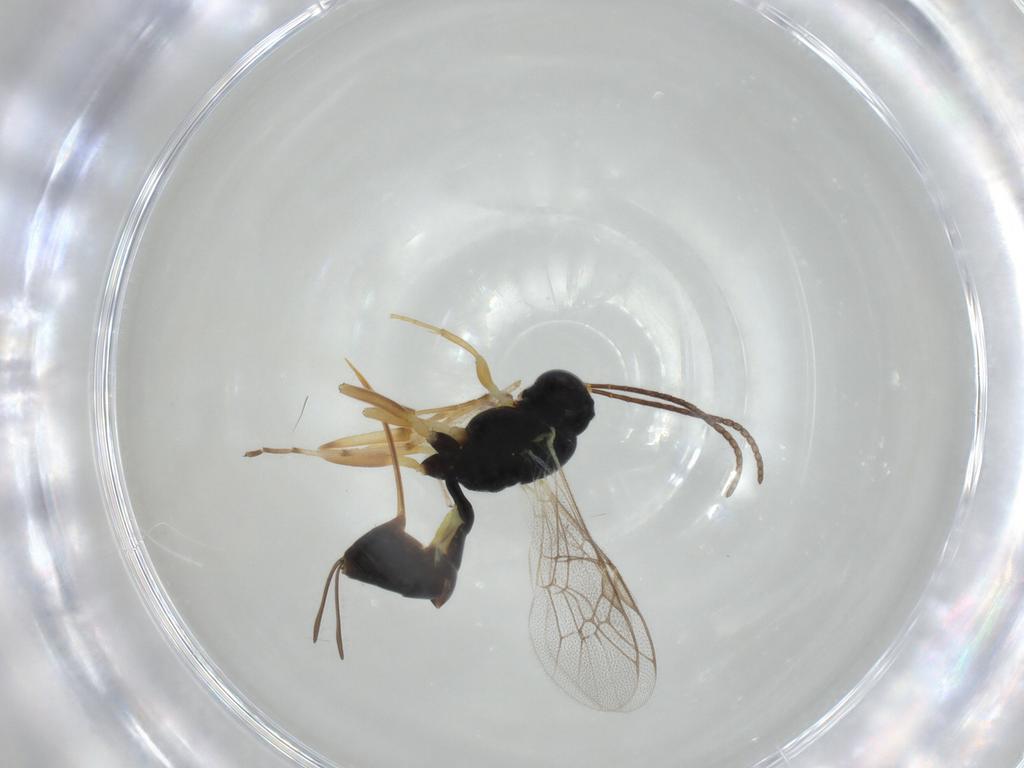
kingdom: Animalia
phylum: Arthropoda
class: Insecta
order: Hymenoptera
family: Ichneumonidae
